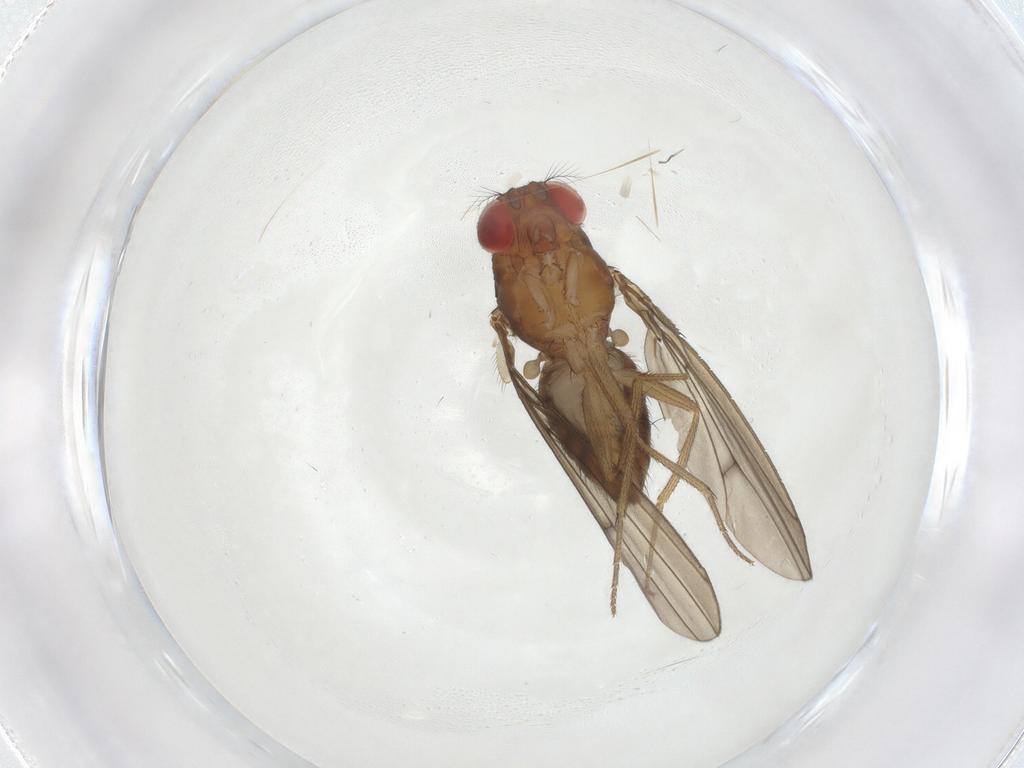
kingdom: Animalia
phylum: Arthropoda
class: Insecta
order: Diptera
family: Drosophilidae
